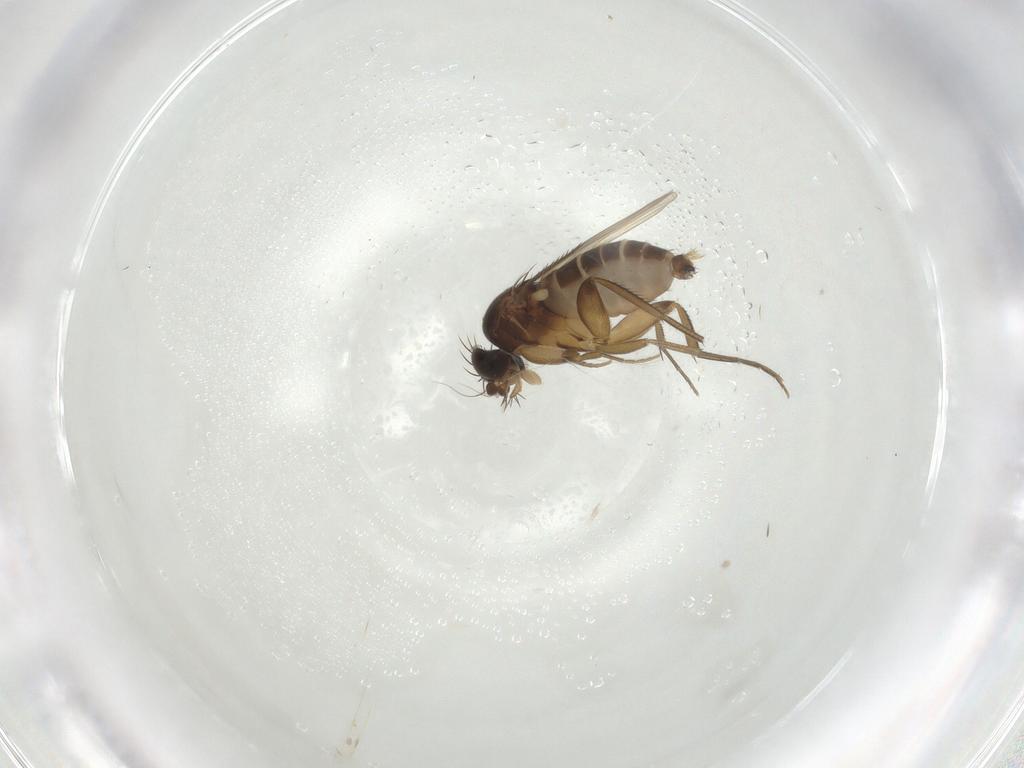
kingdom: Animalia
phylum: Arthropoda
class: Insecta
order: Diptera
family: Phoridae
